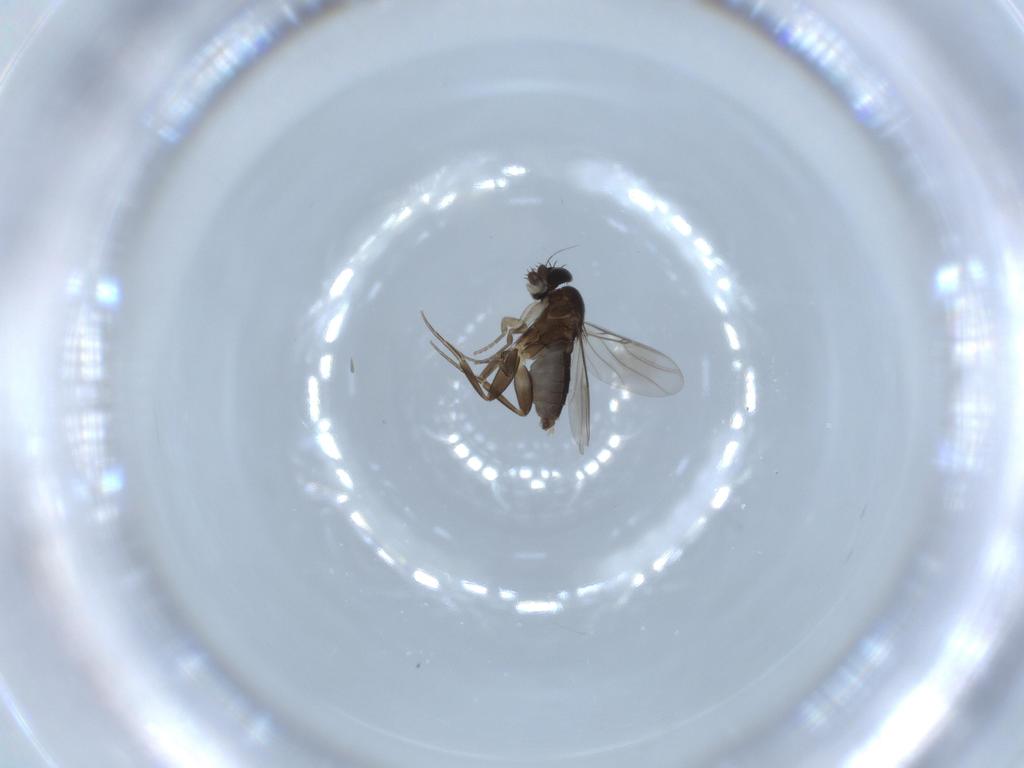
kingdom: Animalia
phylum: Arthropoda
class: Insecta
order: Diptera
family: Phoridae
